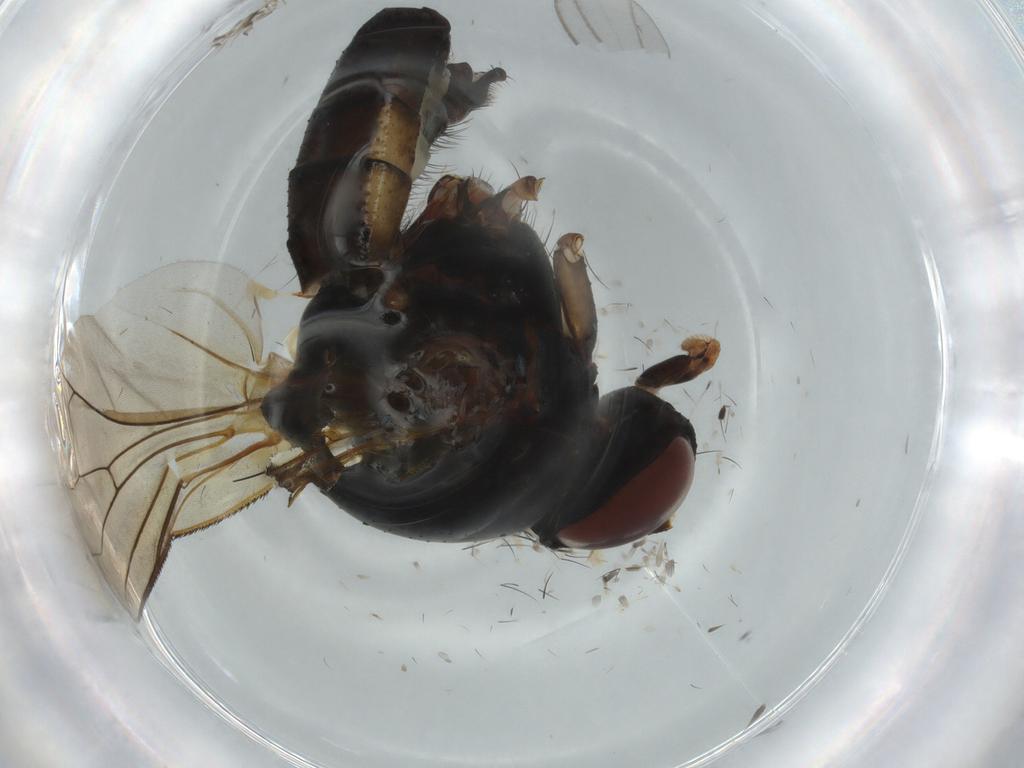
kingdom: Animalia
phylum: Arthropoda
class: Insecta
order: Diptera
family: Anthomyiidae
